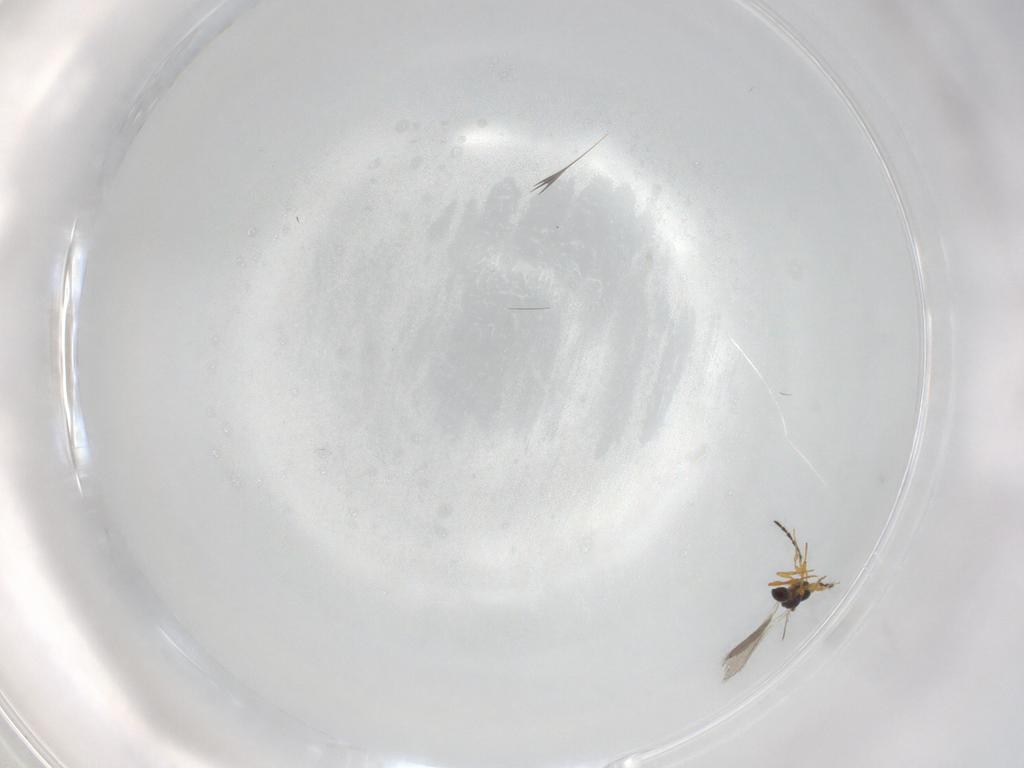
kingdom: Animalia
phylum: Arthropoda
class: Insecta
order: Hymenoptera
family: Platygastridae
